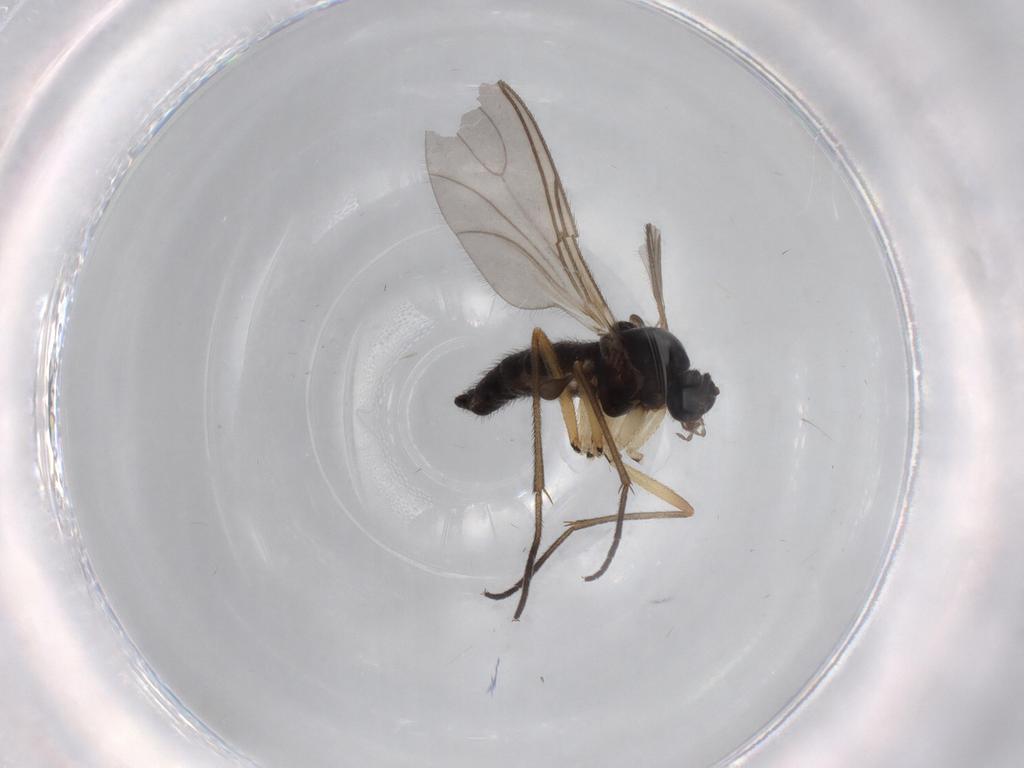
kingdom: Animalia
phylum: Arthropoda
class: Insecta
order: Diptera
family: Sciaridae
